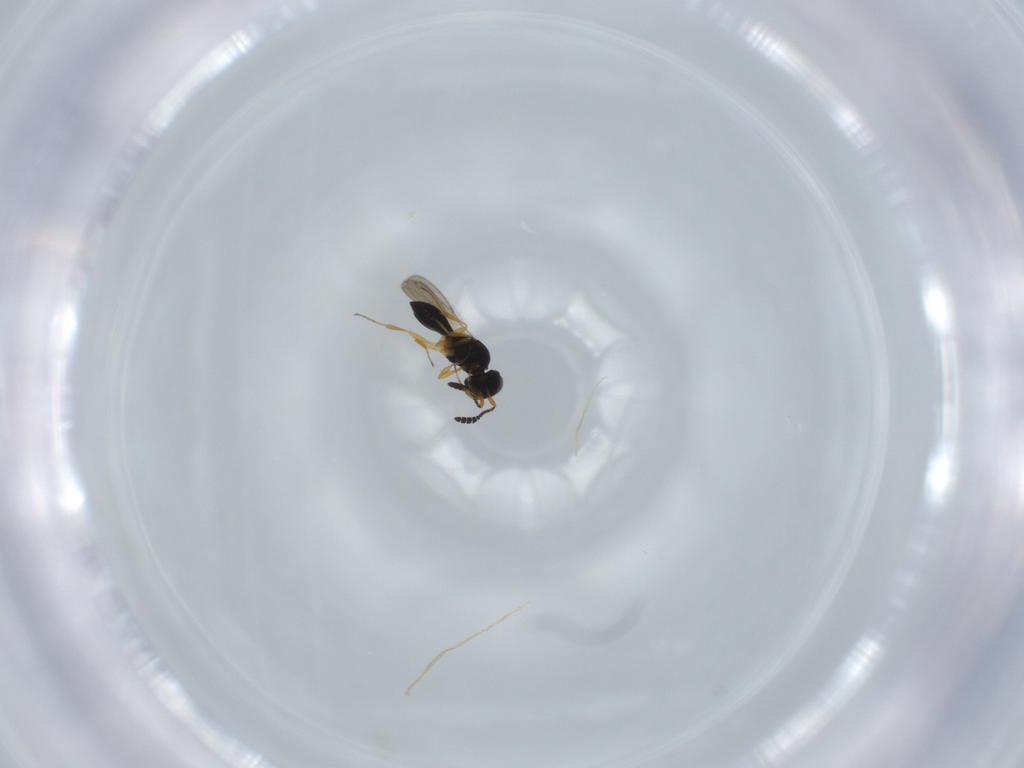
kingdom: Animalia
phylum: Arthropoda
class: Insecta
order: Hymenoptera
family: Scelionidae
